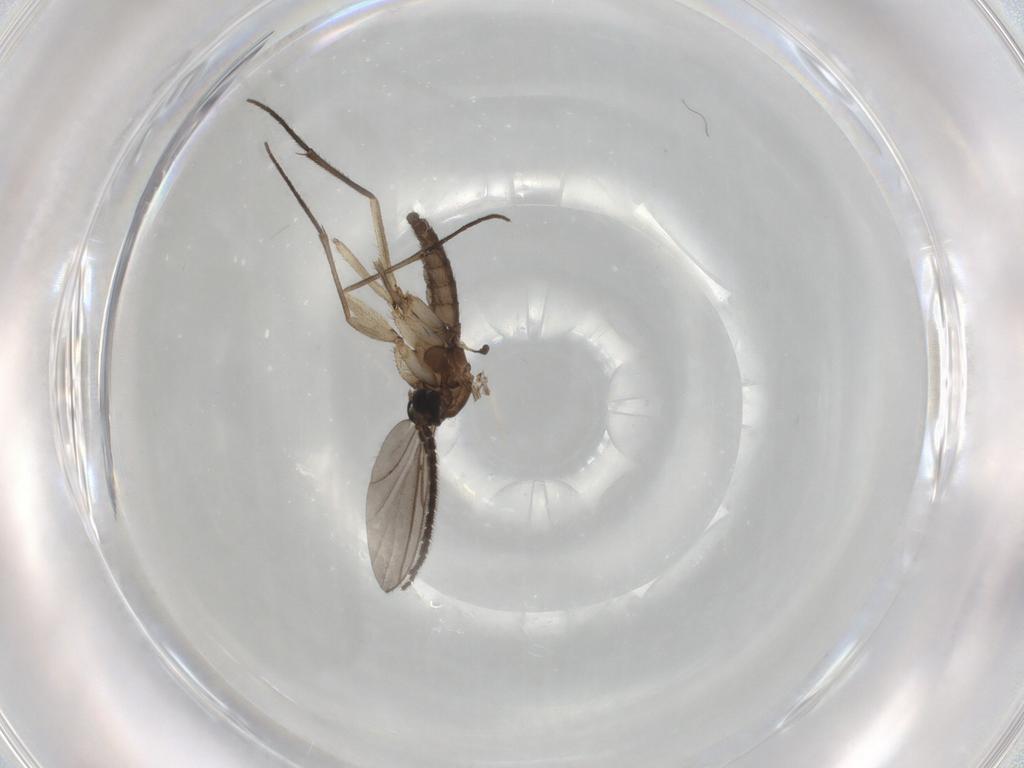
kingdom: Animalia
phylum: Arthropoda
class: Insecta
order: Diptera
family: Sciaridae
